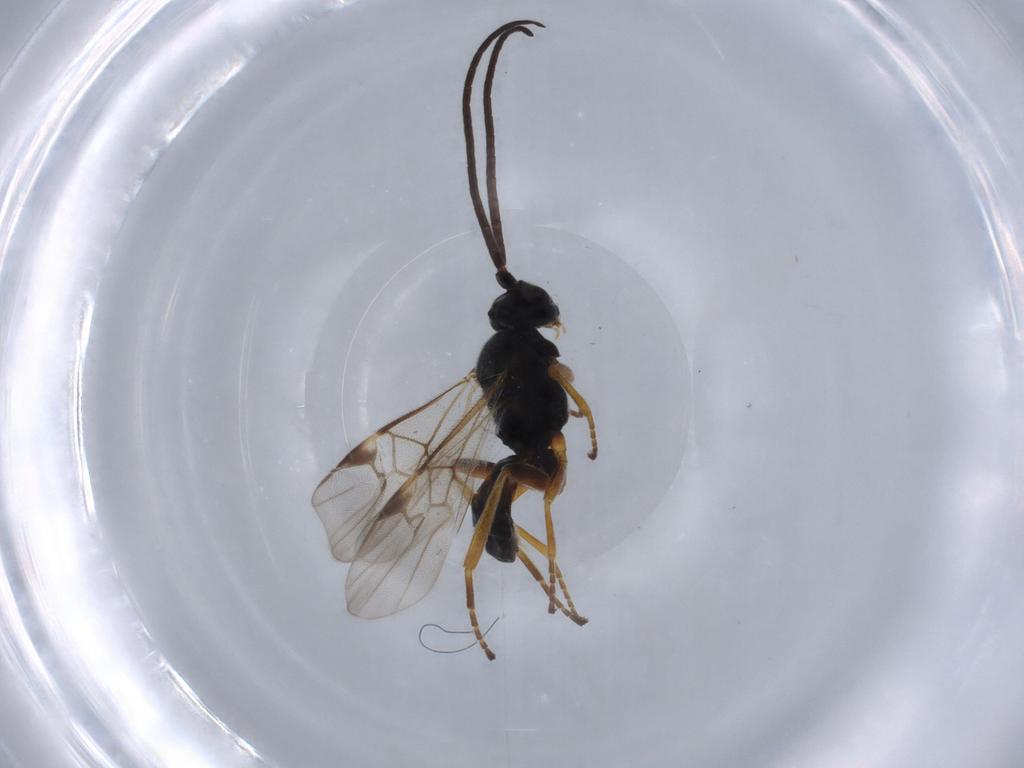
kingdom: Animalia
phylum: Arthropoda
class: Insecta
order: Hymenoptera
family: Braconidae
